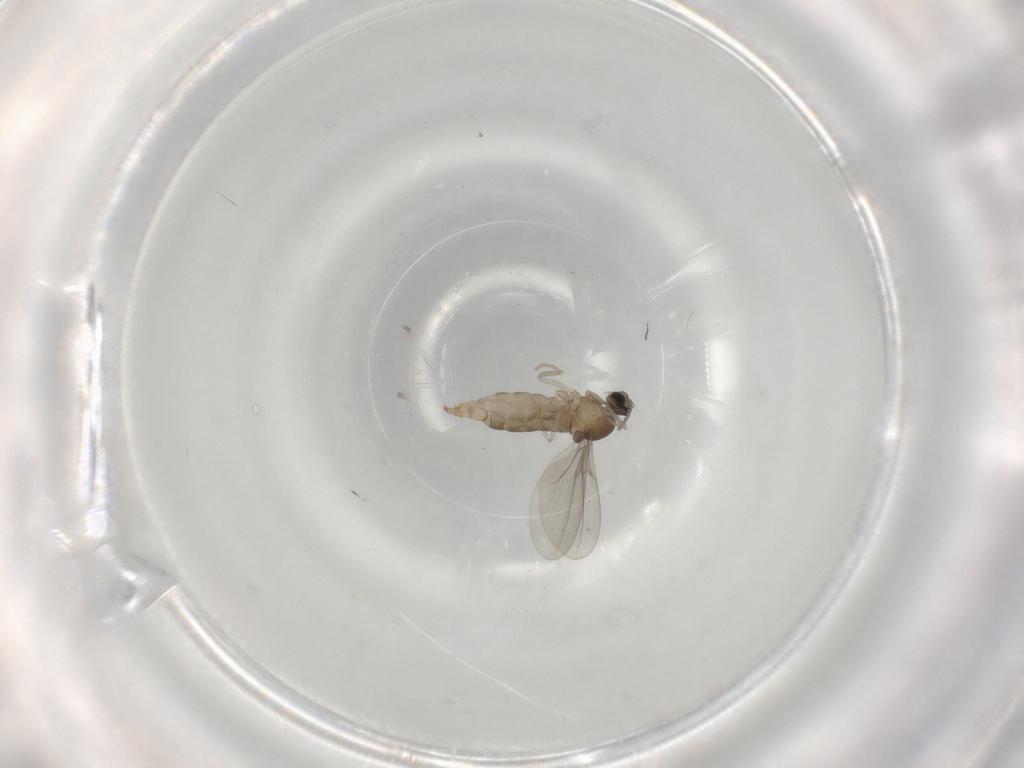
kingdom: Animalia
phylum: Arthropoda
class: Insecta
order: Diptera
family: Cecidomyiidae
